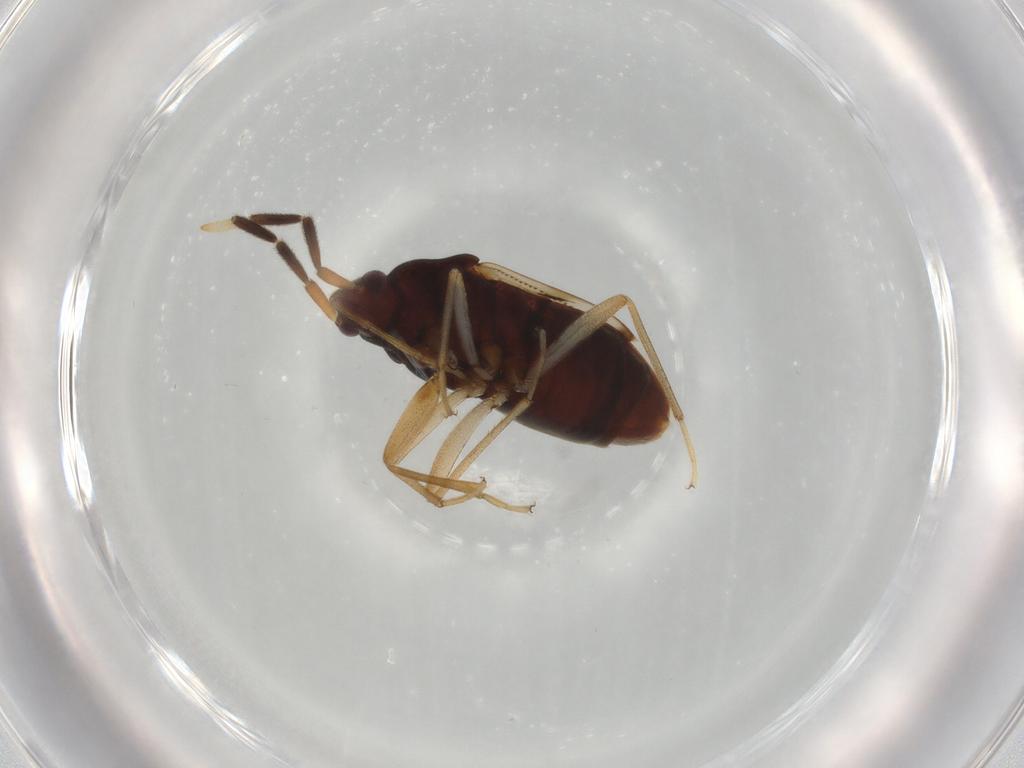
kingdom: Animalia
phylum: Arthropoda
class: Insecta
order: Hemiptera
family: Rhyparochromidae
